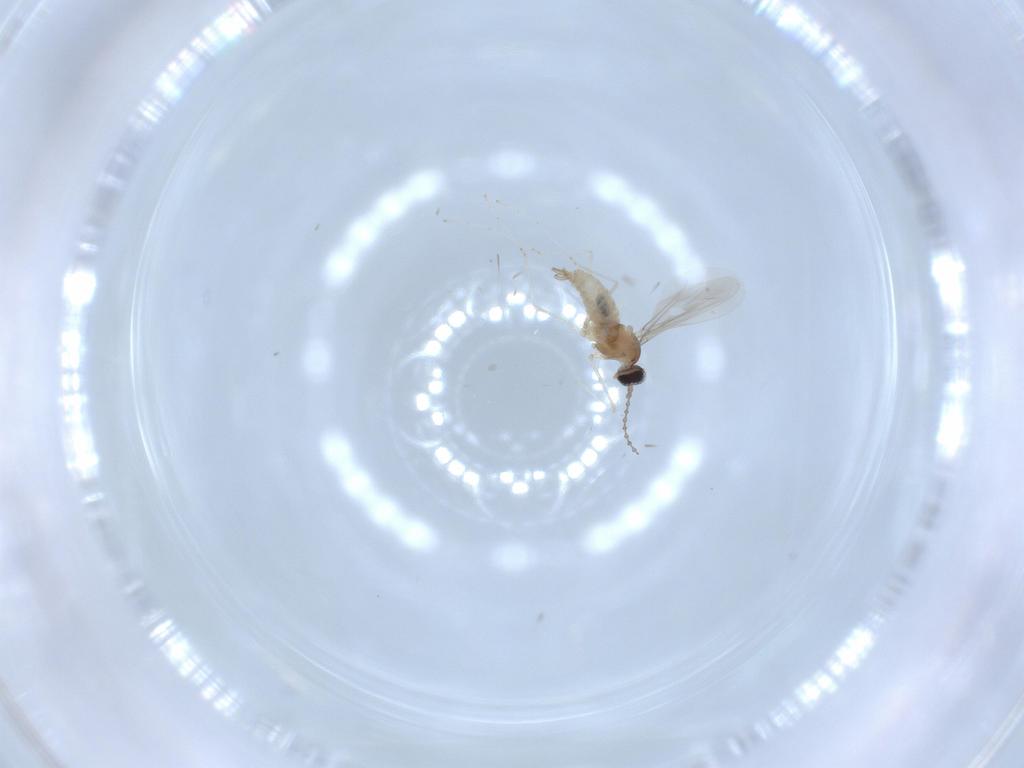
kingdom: Animalia
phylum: Arthropoda
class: Insecta
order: Diptera
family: Cecidomyiidae
